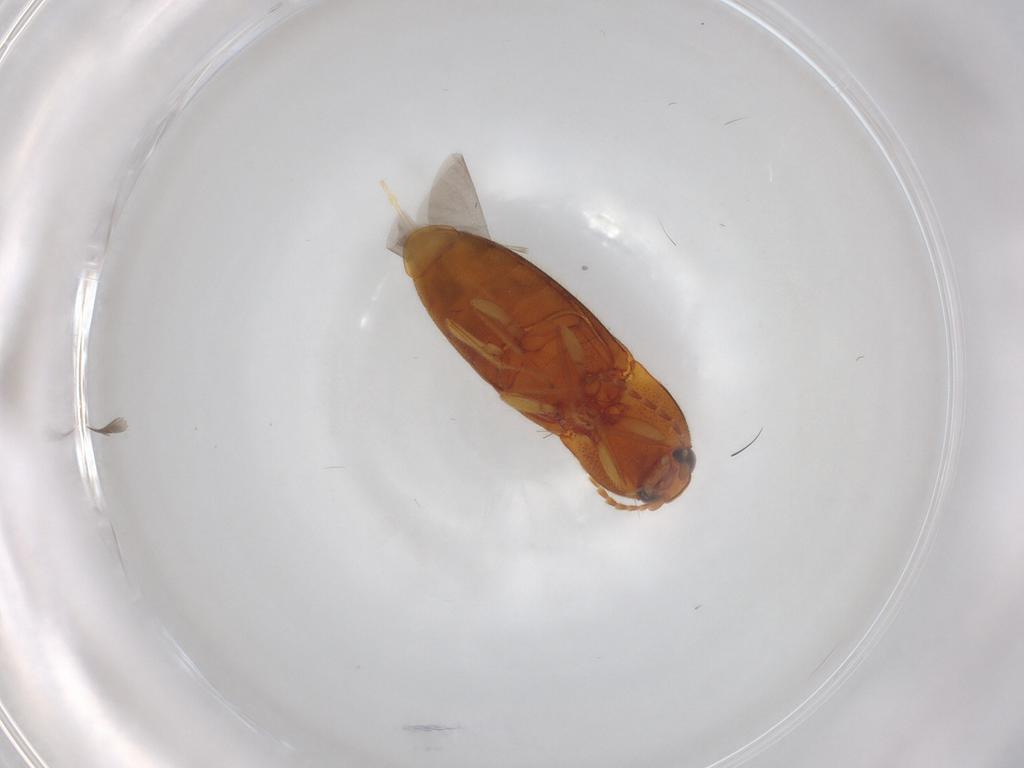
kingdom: Animalia
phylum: Arthropoda
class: Insecta
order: Coleoptera
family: Elateridae
